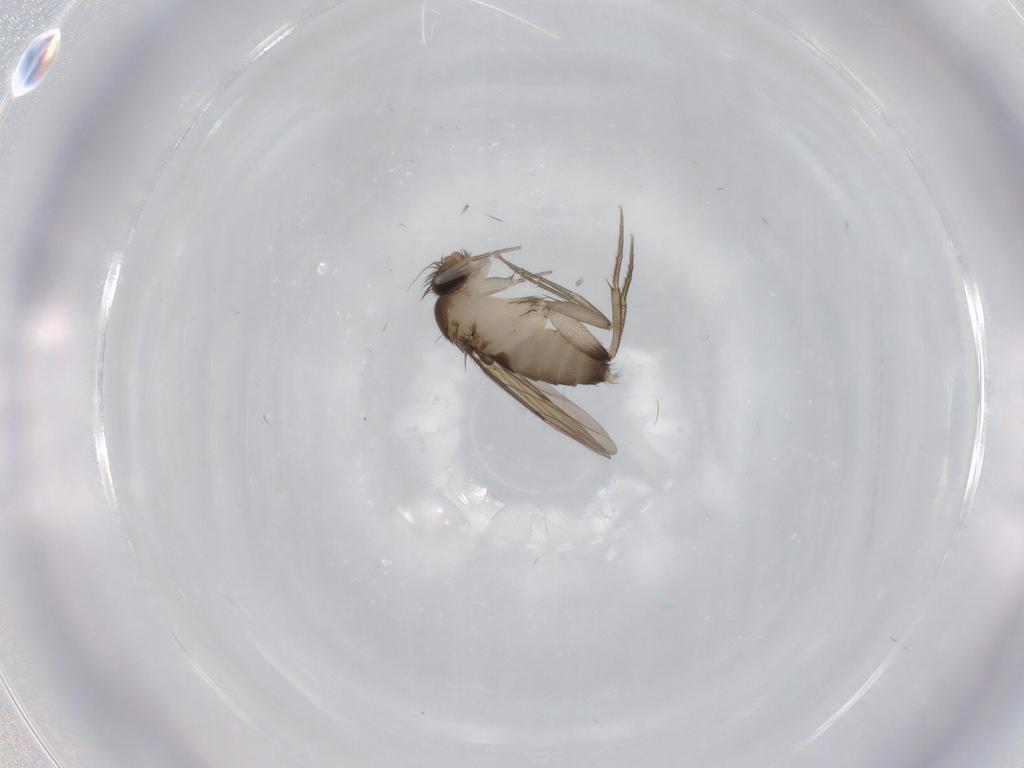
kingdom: Animalia
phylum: Arthropoda
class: Insecta
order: Diptera
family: Phoridae
